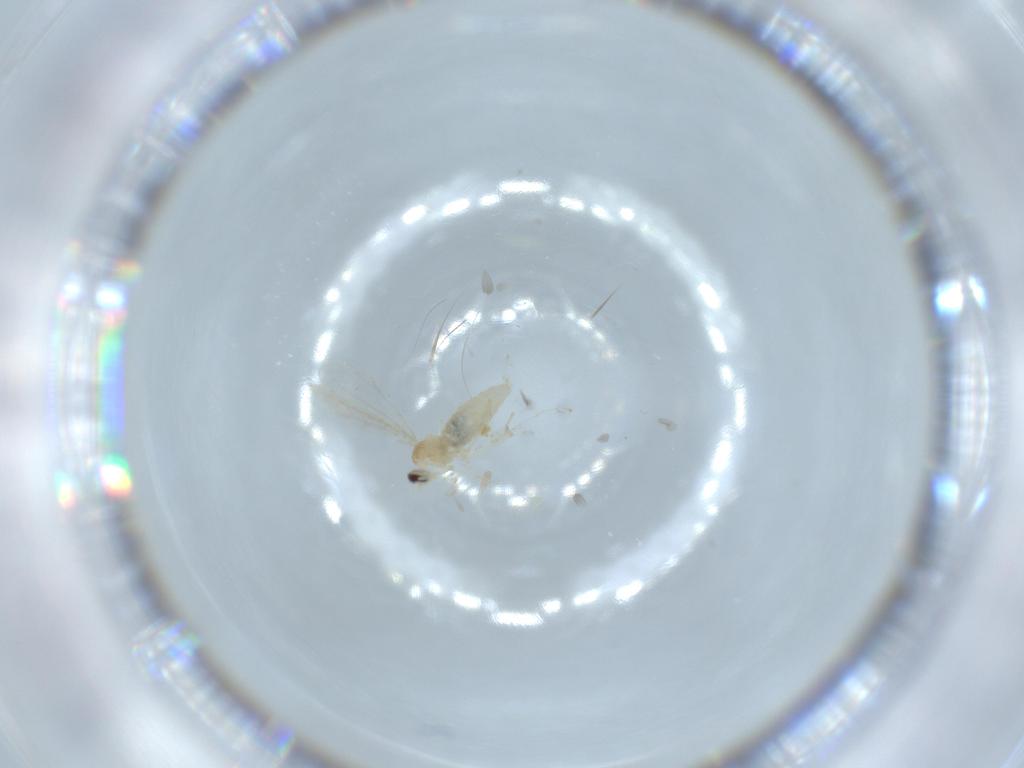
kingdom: Animalia
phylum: Arthropoda
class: Insecta
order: Diptera
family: Cecidomyiidae
